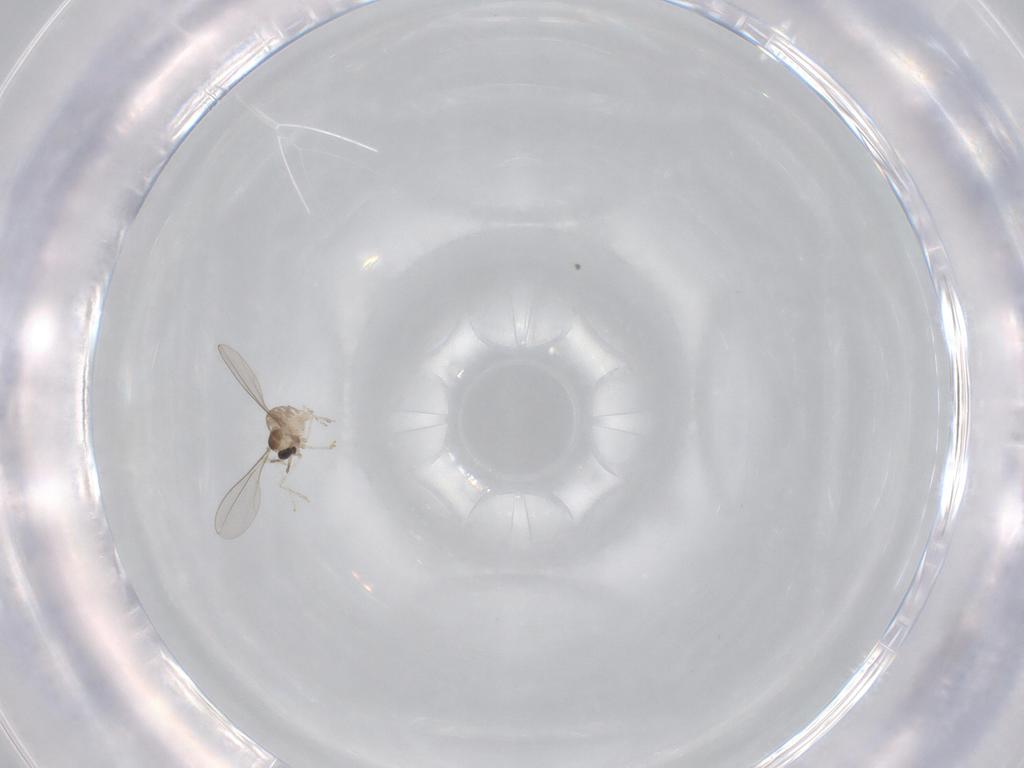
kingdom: Animalia
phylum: Arthropoda
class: Insecta
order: Diptera
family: Cecidomyiidae
